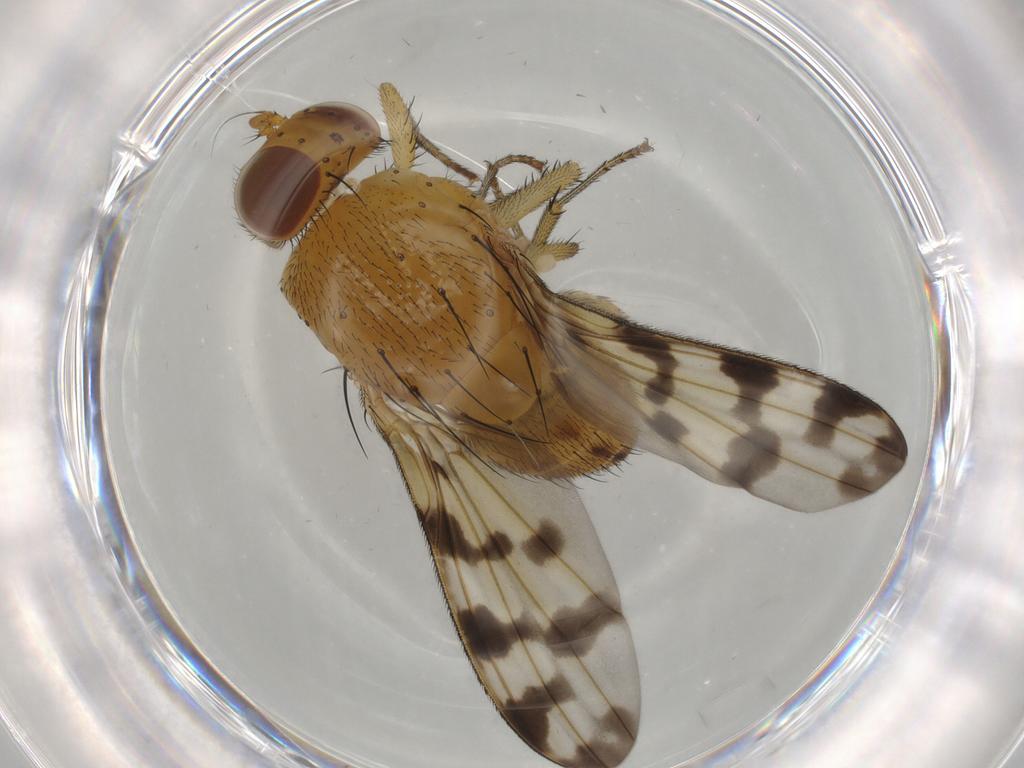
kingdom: Animalia
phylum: Arthropoda
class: Insecta
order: Diptera
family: Cecidomyiidae
